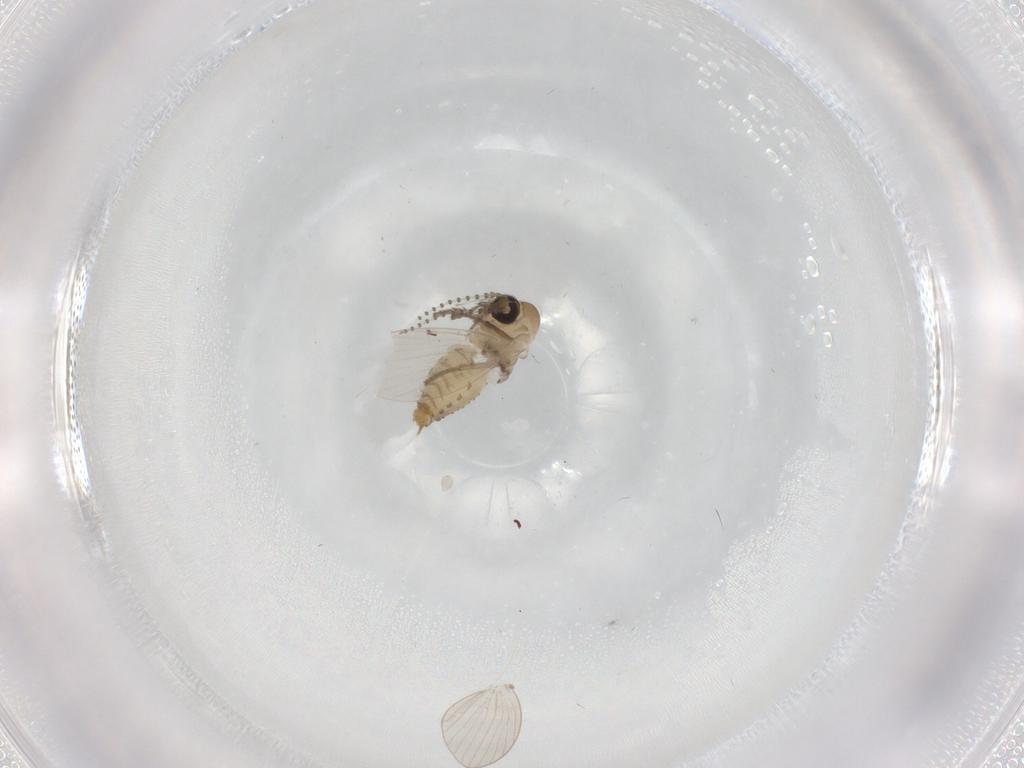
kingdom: Animalia
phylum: Arthropoda
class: Insecta
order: Diptera
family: Psychodidae
